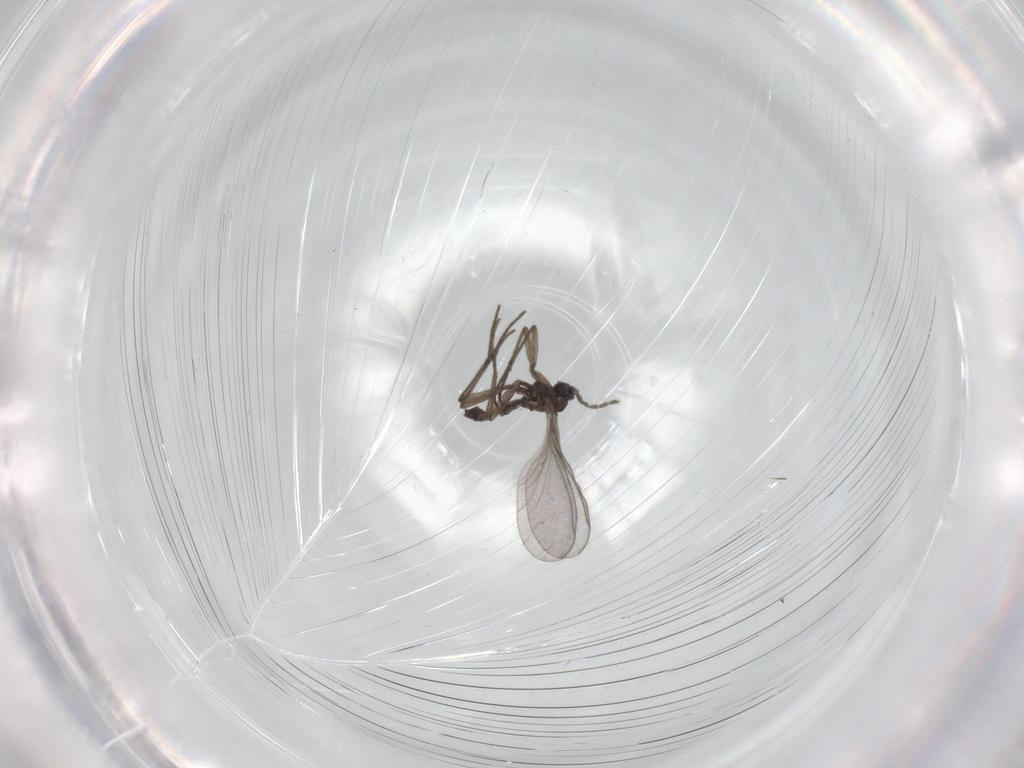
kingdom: Animalia
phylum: Arthropoda
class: Insecta
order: Diptera
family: Sciaridae
